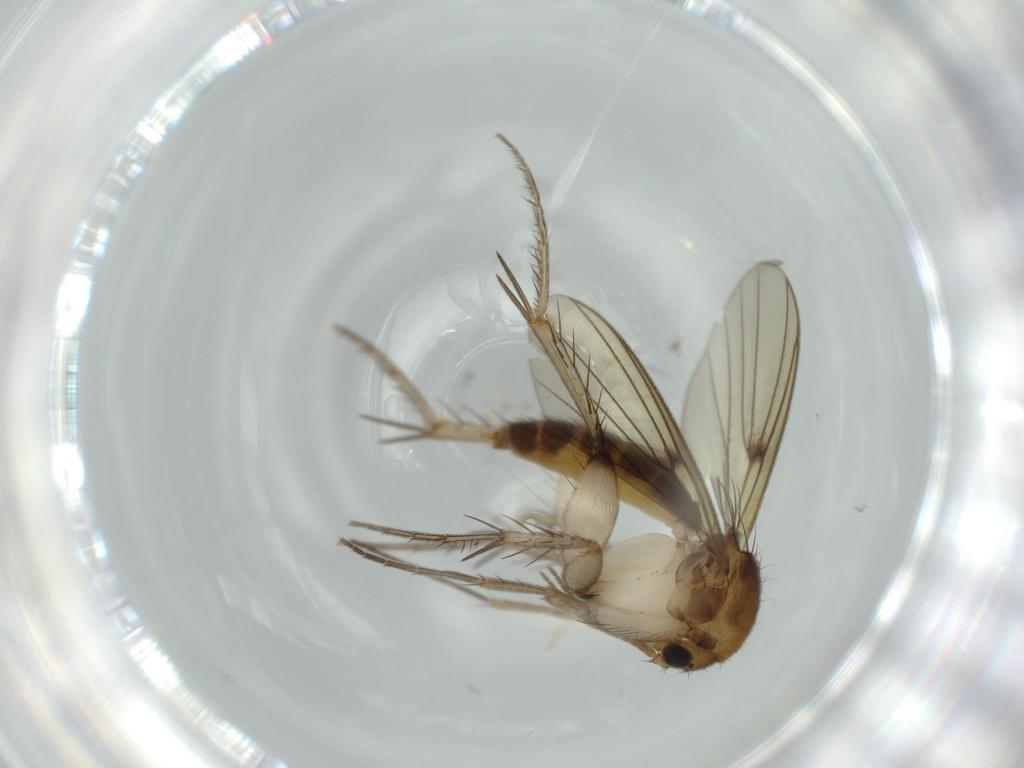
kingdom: Animalia
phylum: Arthropoda
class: Insecta
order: Diptera
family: Mycetophilidae
